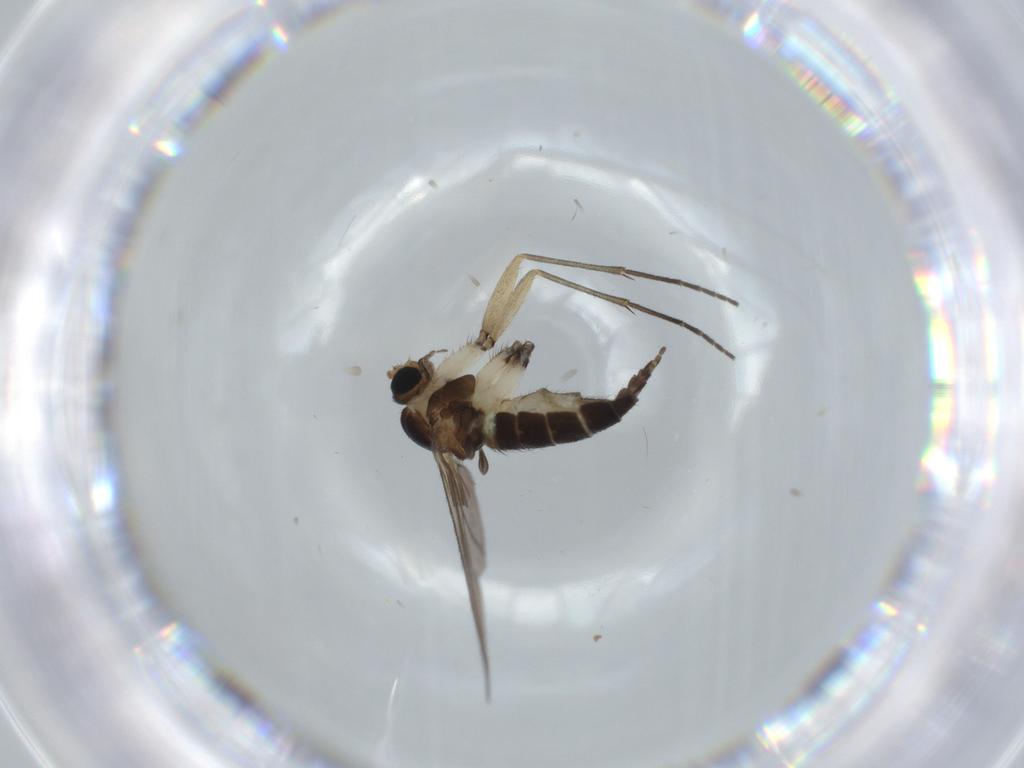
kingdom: Animalia
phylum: Arthropoda
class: Insecta
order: Diptera
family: Sciaridae
